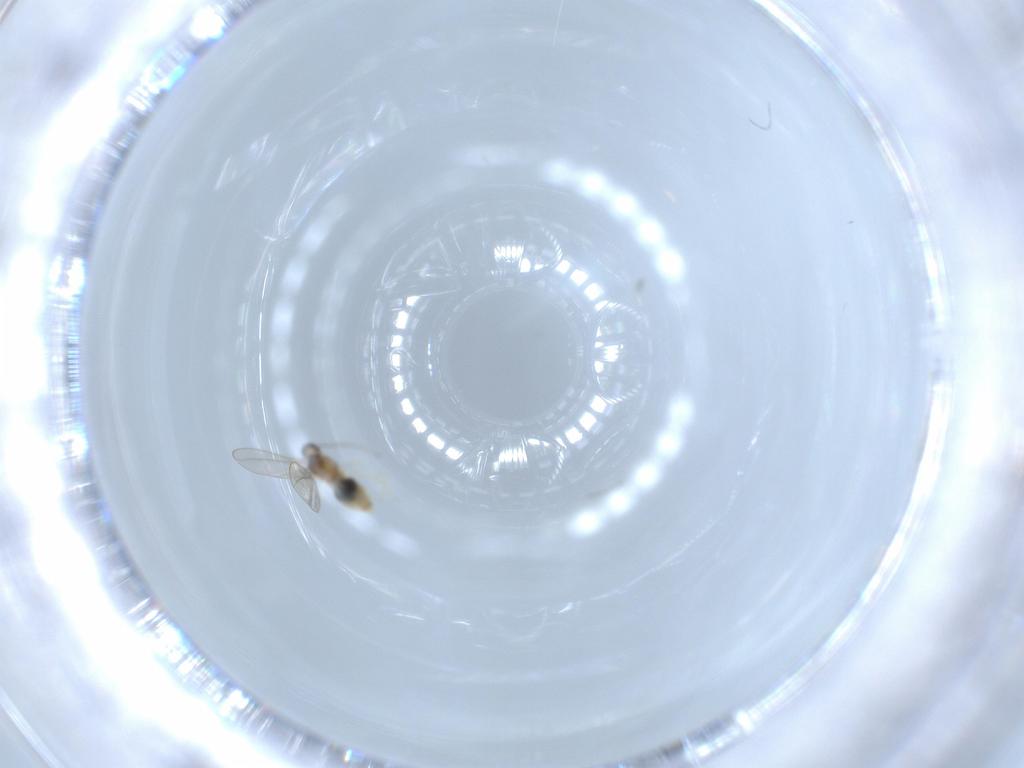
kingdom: Animalia
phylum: Arthropoda
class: Insecta
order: Diptera
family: Cecidomyiidae
